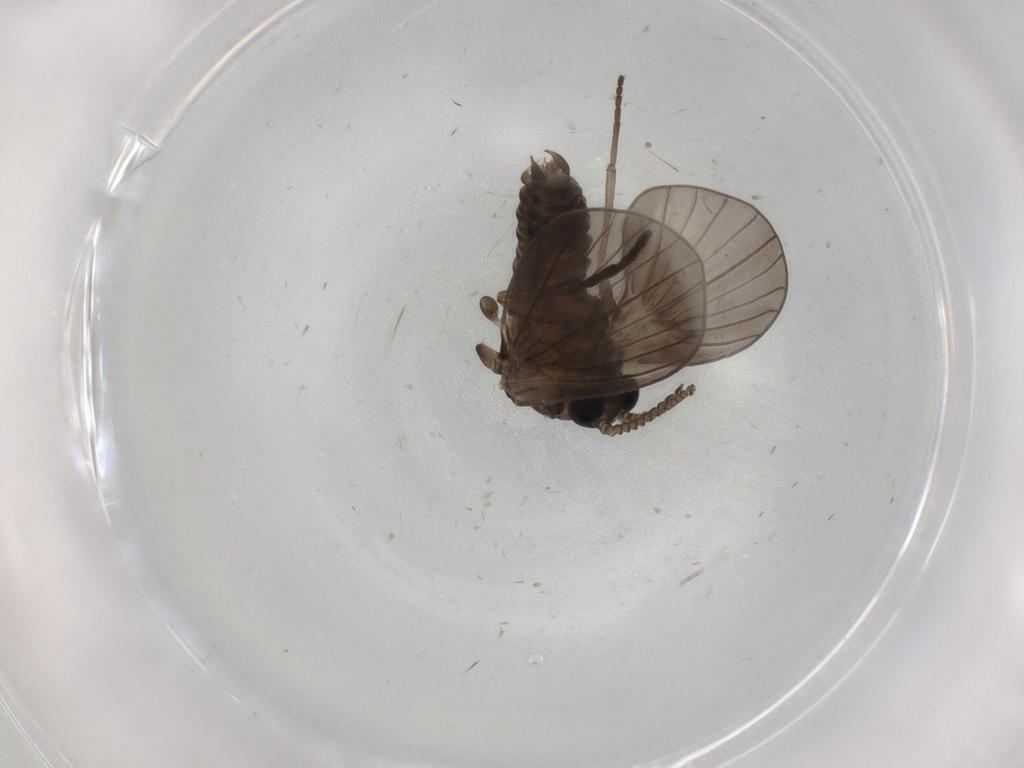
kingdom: Animalia
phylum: Arthropoda
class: Insecta
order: Diptera
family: Psychodidae
